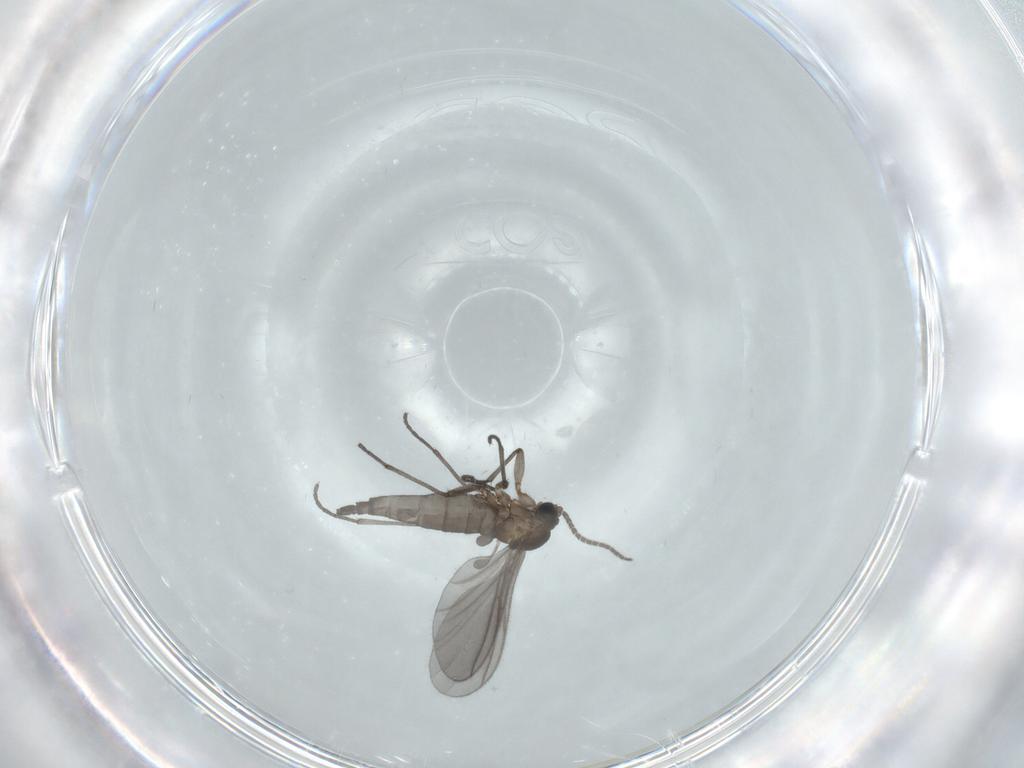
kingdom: Animalia
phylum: Arthropoda
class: Insecta
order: Diptera
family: Sciaridae
